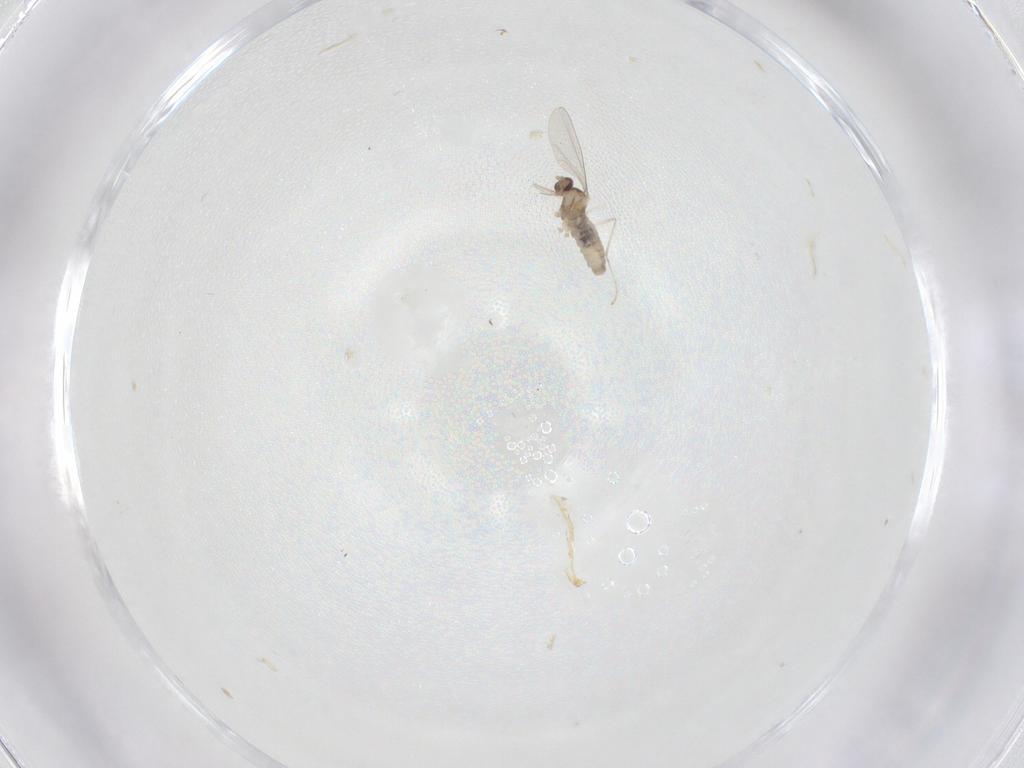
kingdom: Animalia
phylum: Arthropoda
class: Insecta
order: Diptera
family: Cecidomyiidae
